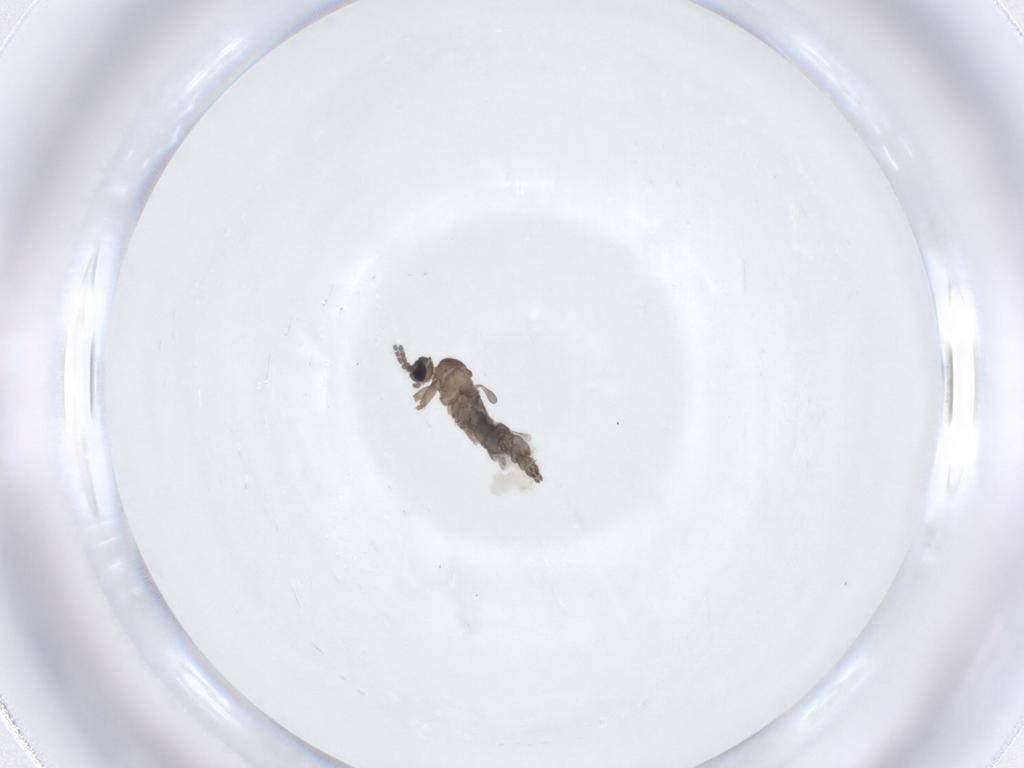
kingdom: Animalia
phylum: Arthropoda
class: Insecta
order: Diptera
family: Sciaridae
